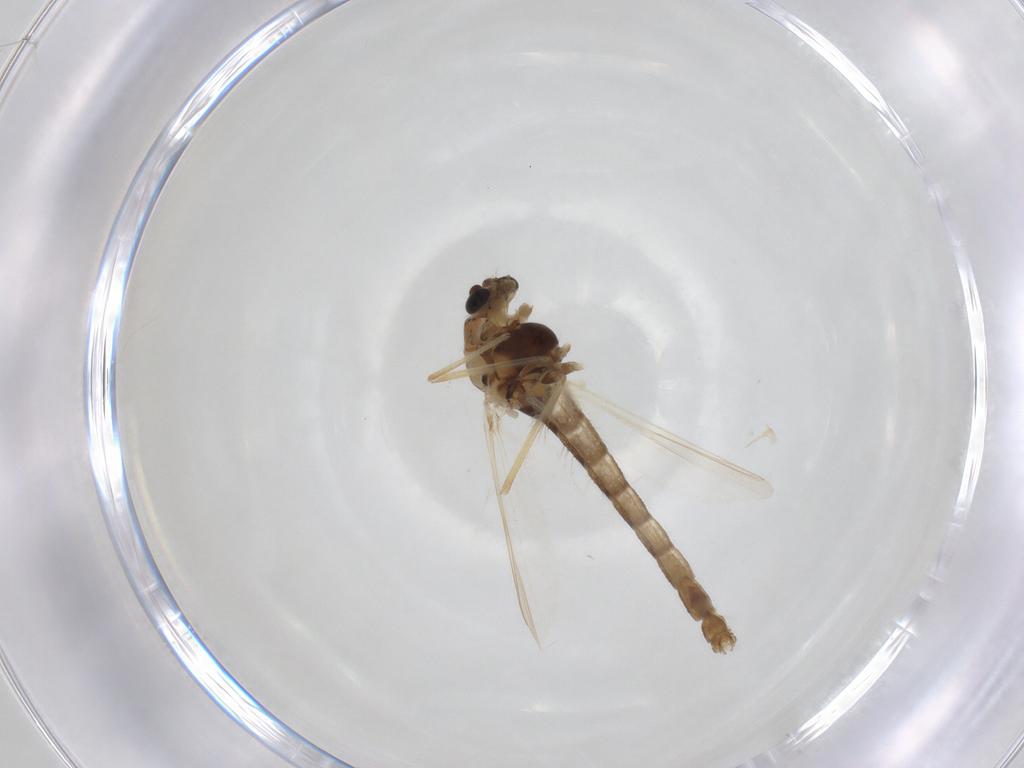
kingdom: Animalia
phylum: Arthropoda
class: Insecta
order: Diptera
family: Chironomidae
